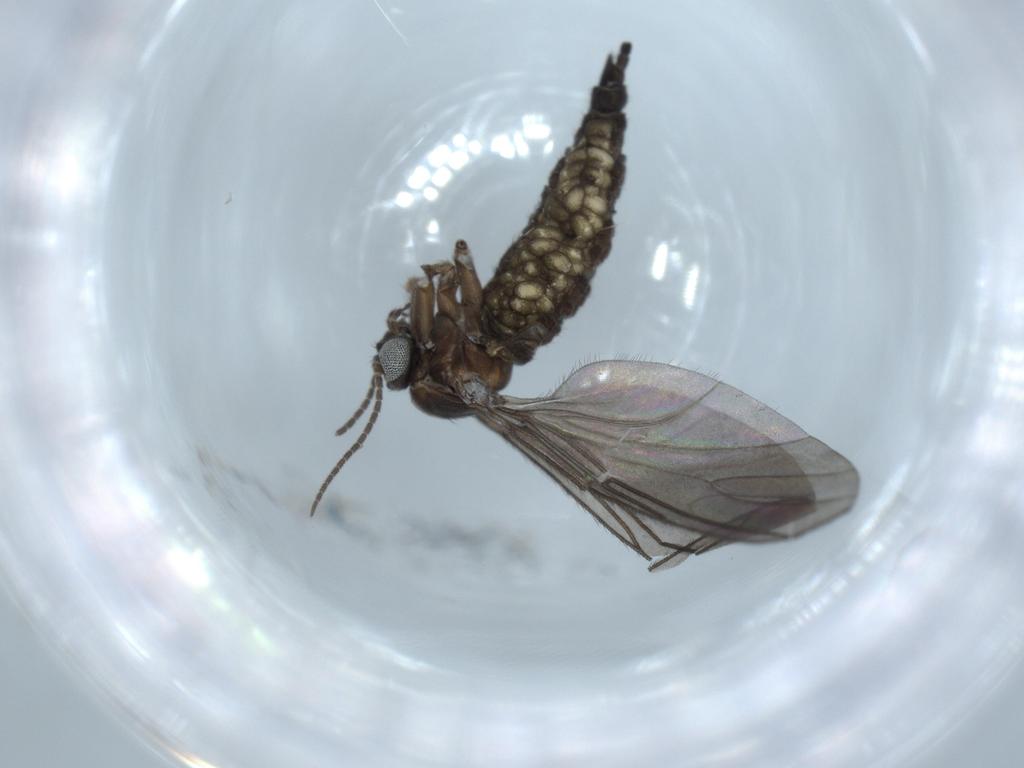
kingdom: Animalia
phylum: Arthropoda
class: Insecta
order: Diptera
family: Sciaridae
